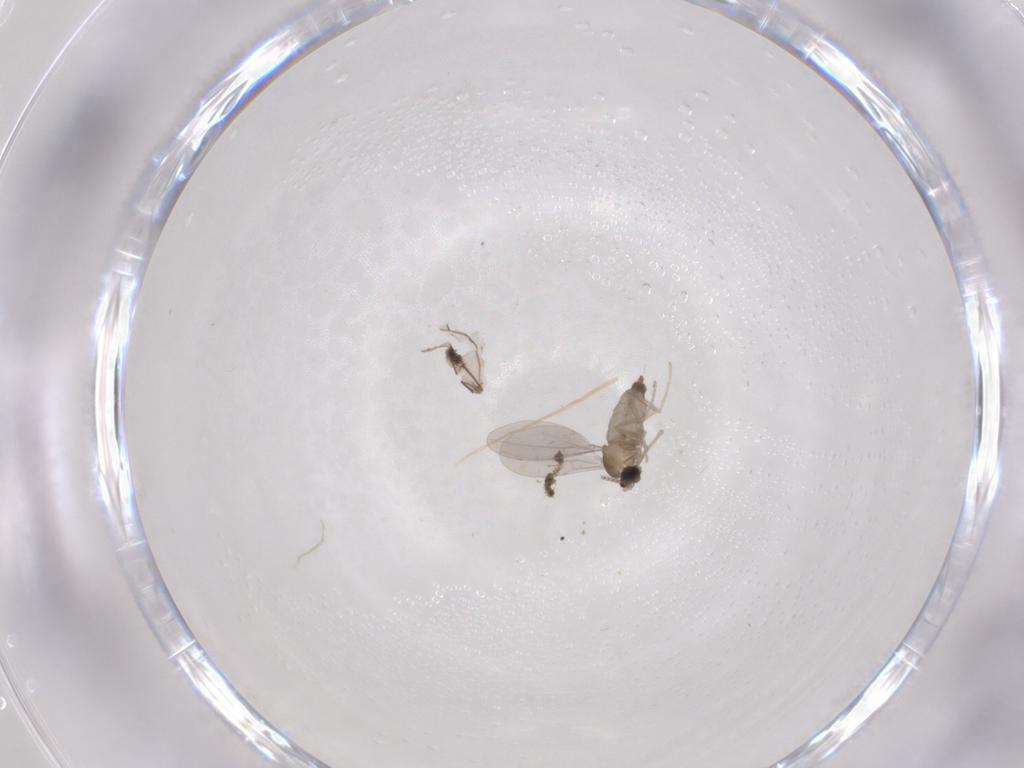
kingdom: Animalia
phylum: Arthropoda
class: Insecta
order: Diptera
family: Cecidomyiidae
